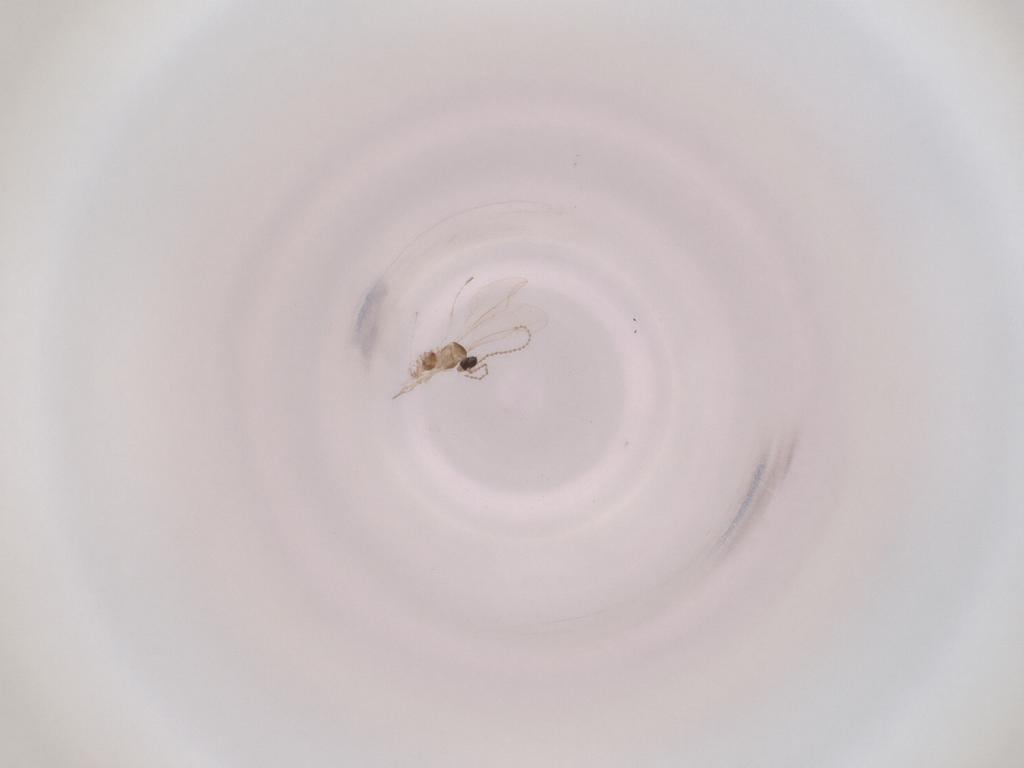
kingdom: Animalia
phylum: Arthropoda
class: Insecta
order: Diptera
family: Cecidomyiidae
